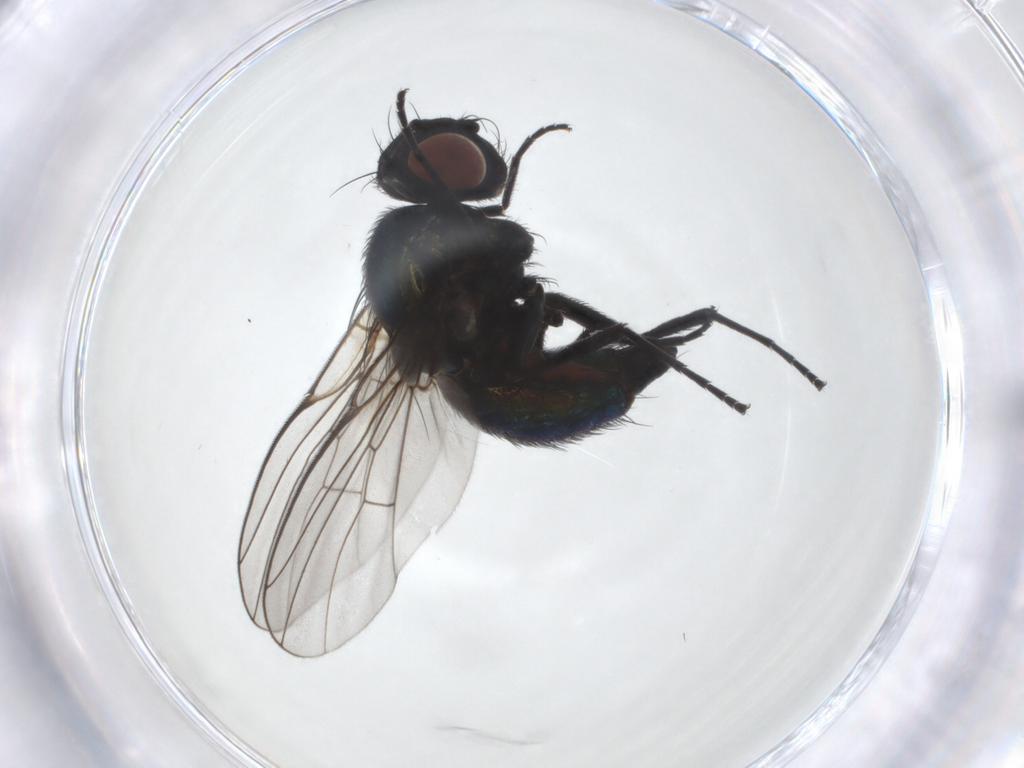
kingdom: Animalia
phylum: Arthropoda
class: Insecta
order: Diptera
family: Agromyzidae
